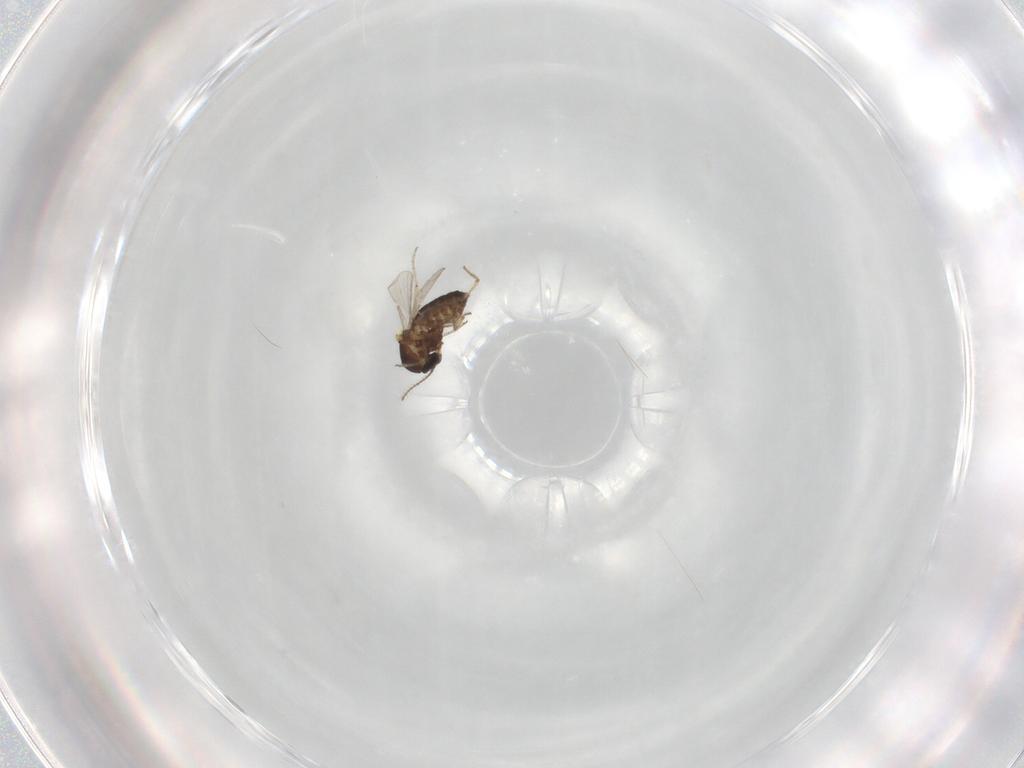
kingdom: Animalia
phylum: Arthropoda
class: Insecta
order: Diptera
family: Ceratopogonidae
